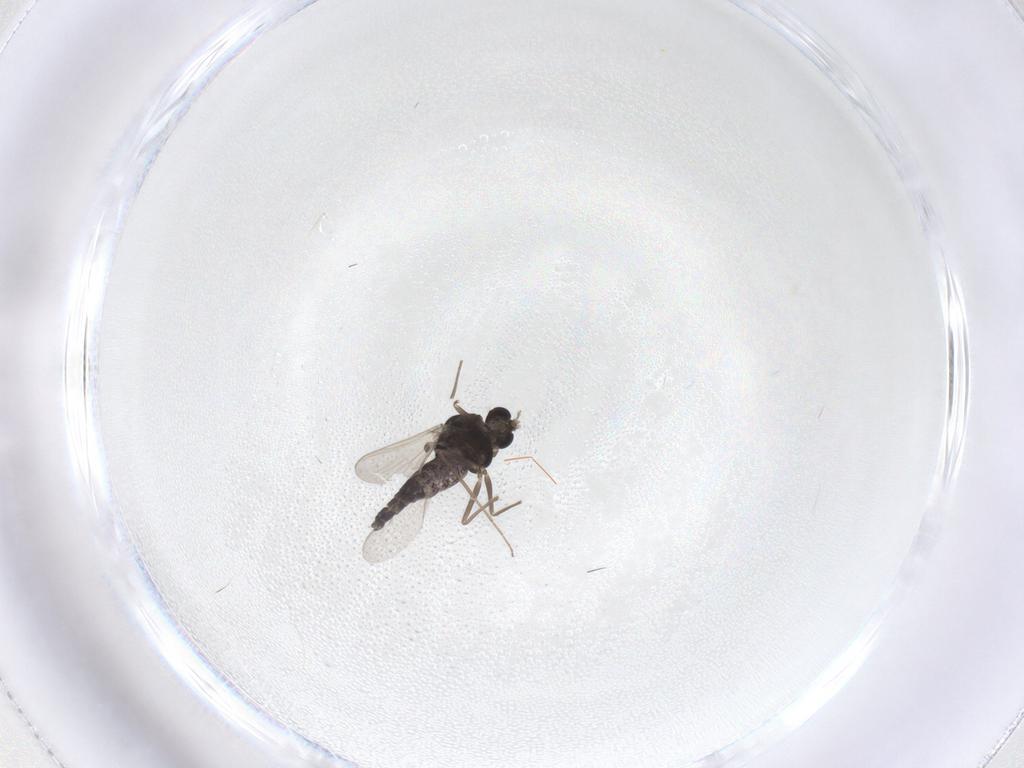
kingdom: Animalia
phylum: Arthropoda
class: Insecta
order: Diptera
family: Chironomidae
